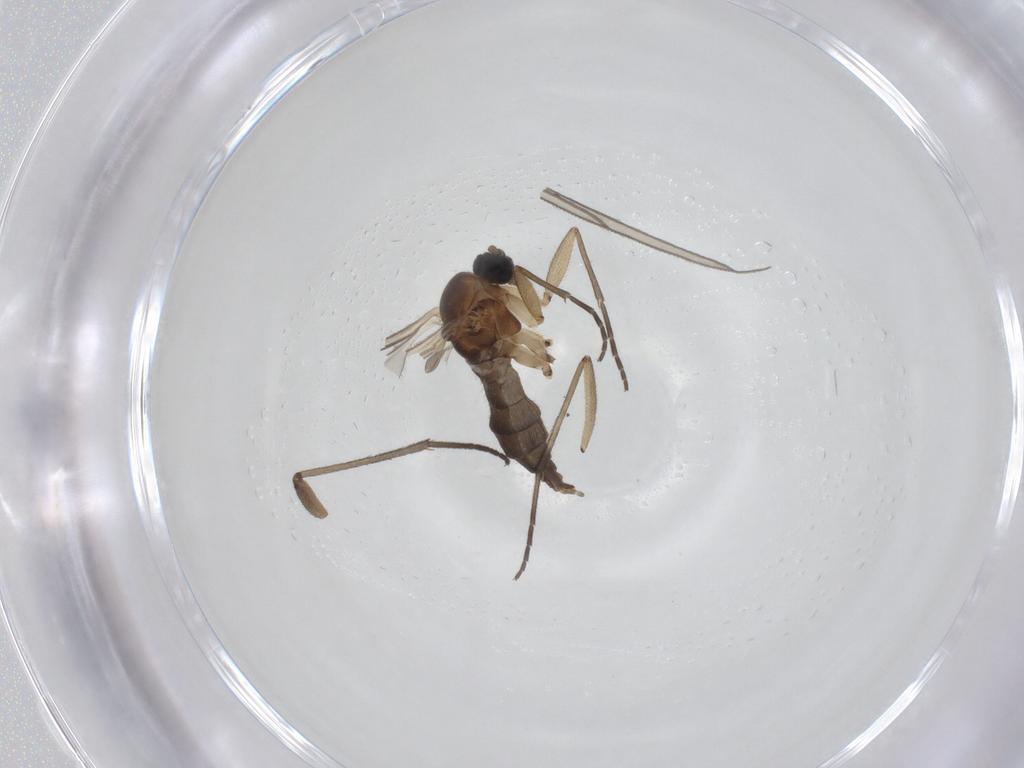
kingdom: Animalia
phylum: Arthropoda
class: Insecta
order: Diptera
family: Sciaridae
